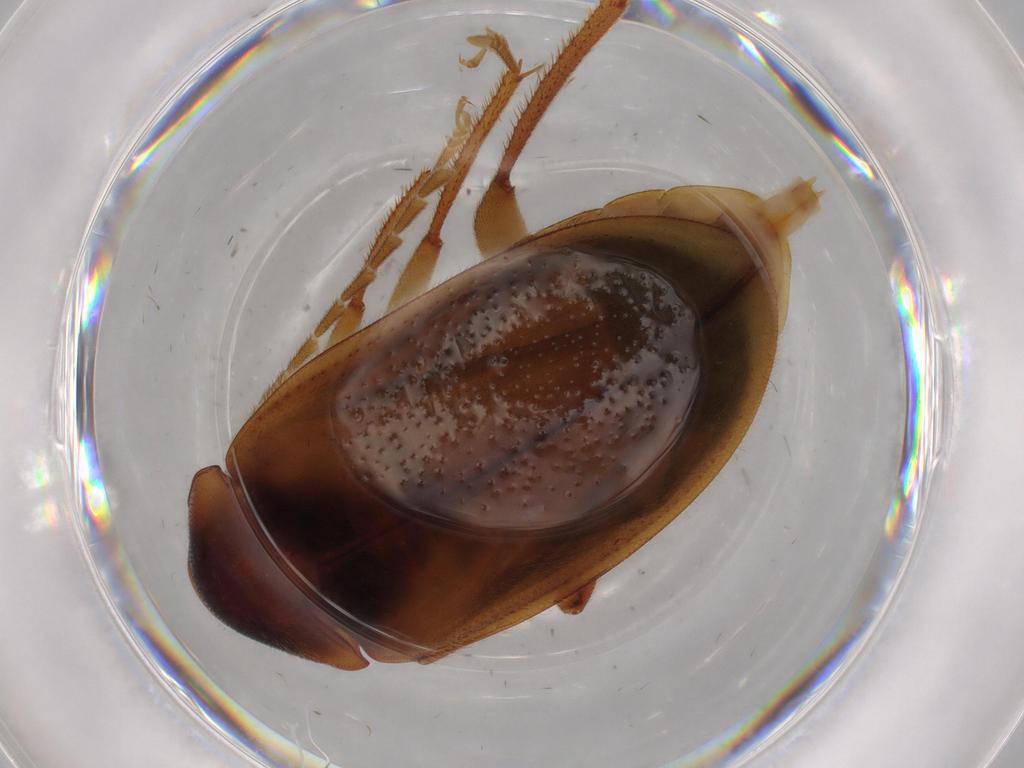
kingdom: Animalia
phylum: Arthropoda
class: Insecta
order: Coleoptera
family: Ptilodactylidae
